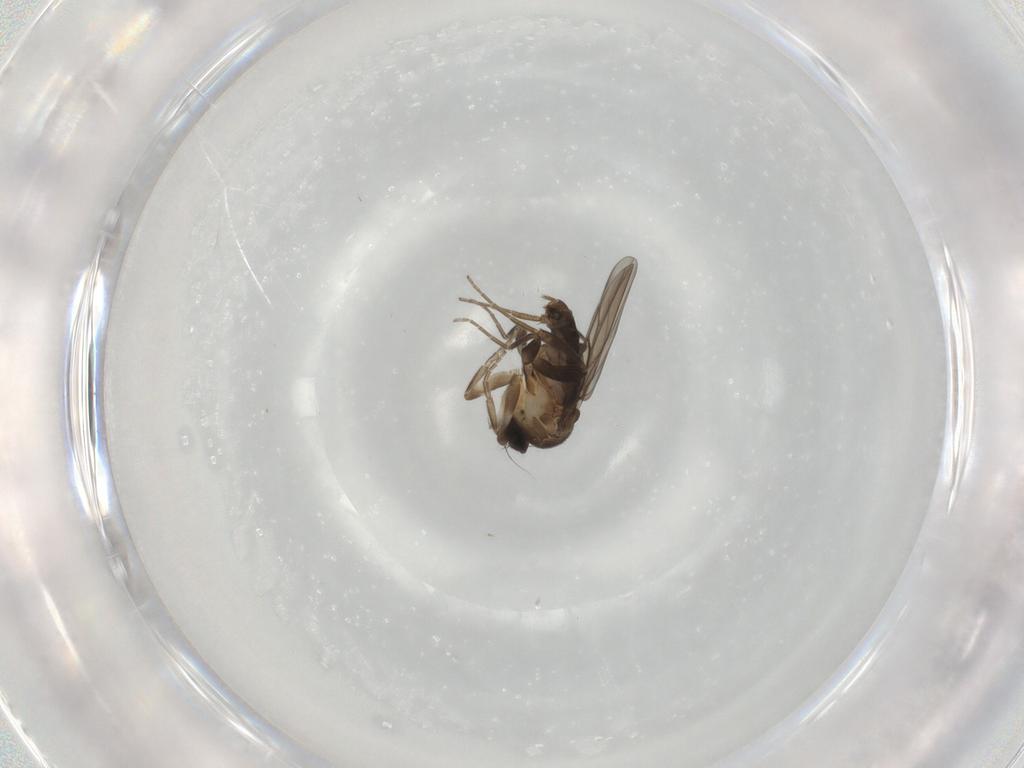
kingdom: Animalia
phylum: Arthropoda
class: Insecta
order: Diptera
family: Phoridae
